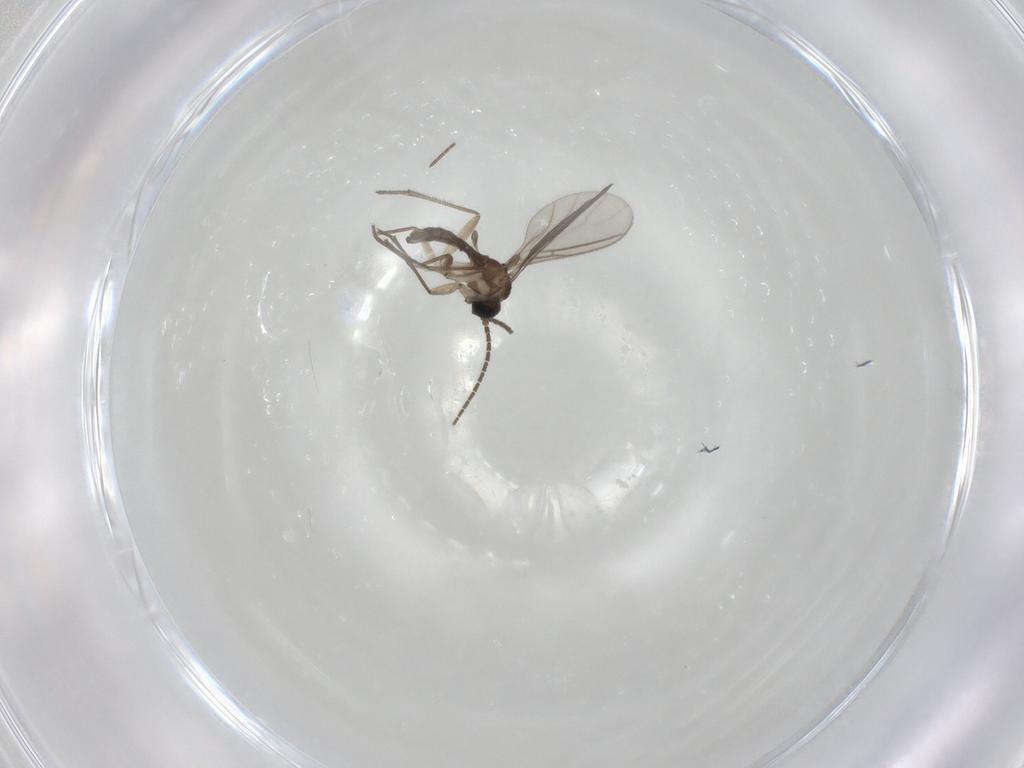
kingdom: Animalia
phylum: Arthropoda
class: Insecta
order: Diptera
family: Sciaridae
